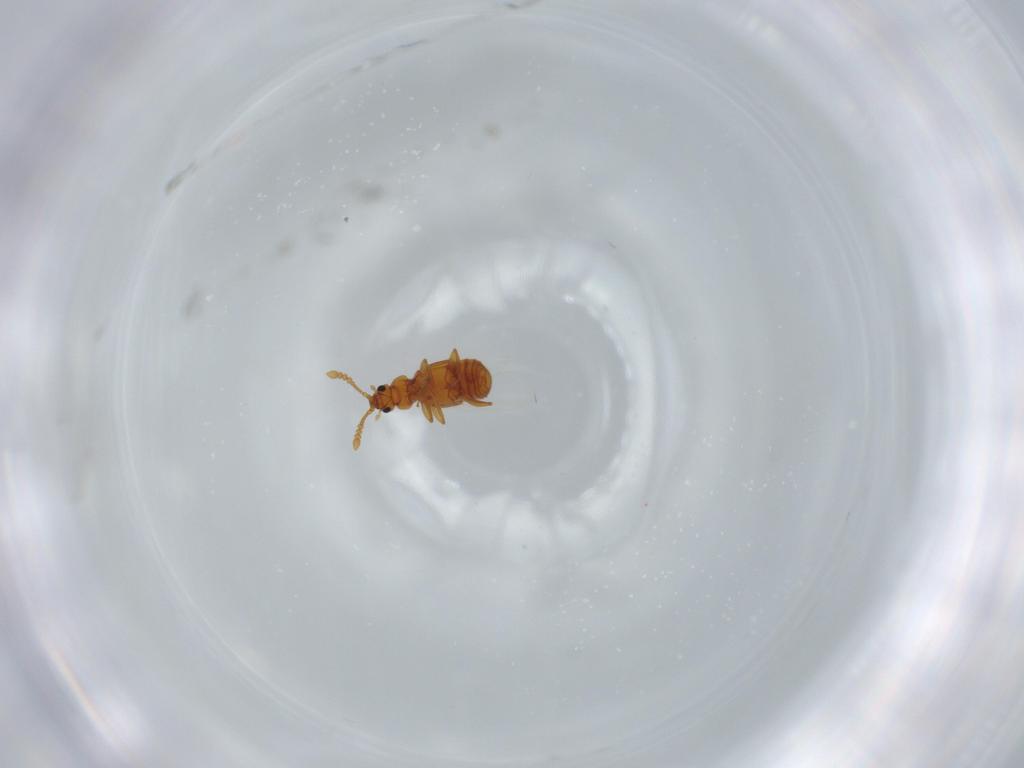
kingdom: Animalia
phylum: Arthropoda
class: Insecta
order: Coleoptera
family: Staphylinidae
